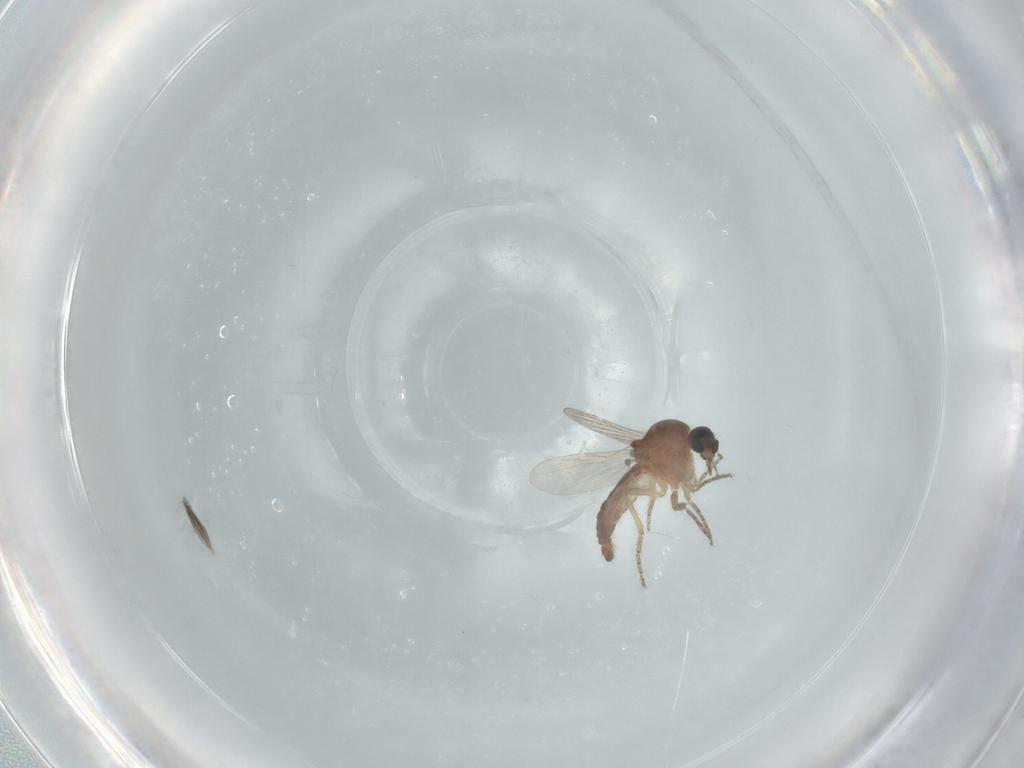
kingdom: Animalia
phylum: Arthropoda
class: Insecta
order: Diptera
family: Ceratopogonidae
